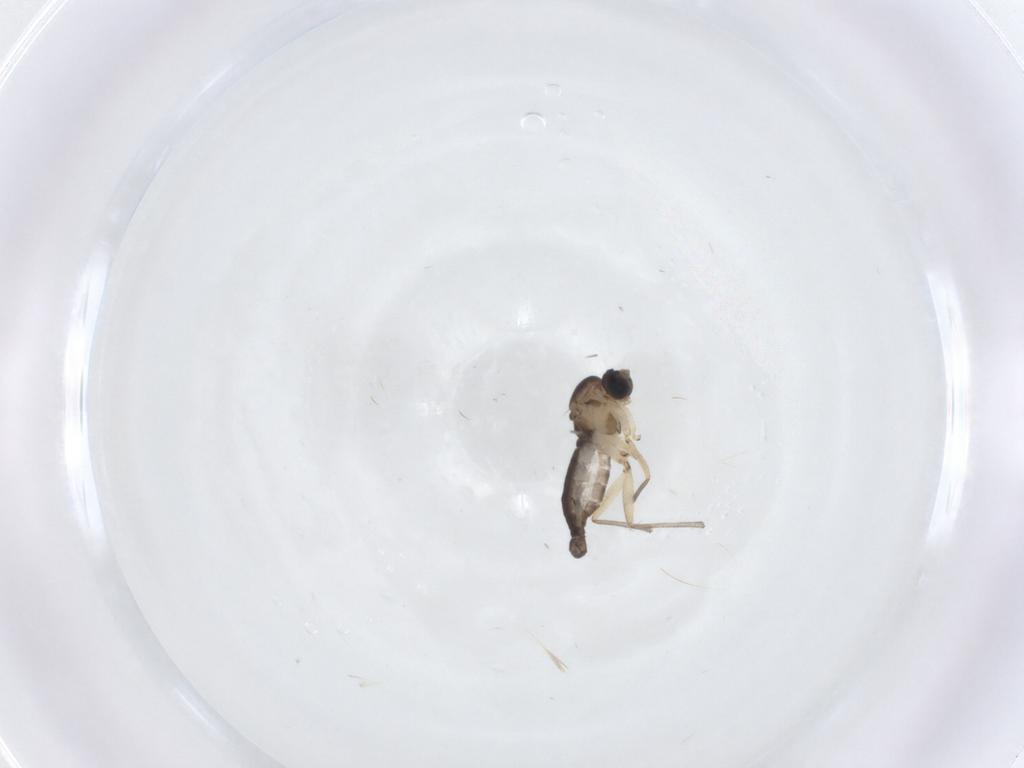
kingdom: Animalia
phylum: Arthropoda
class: Insecta
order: Diptera
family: Sciaridae
